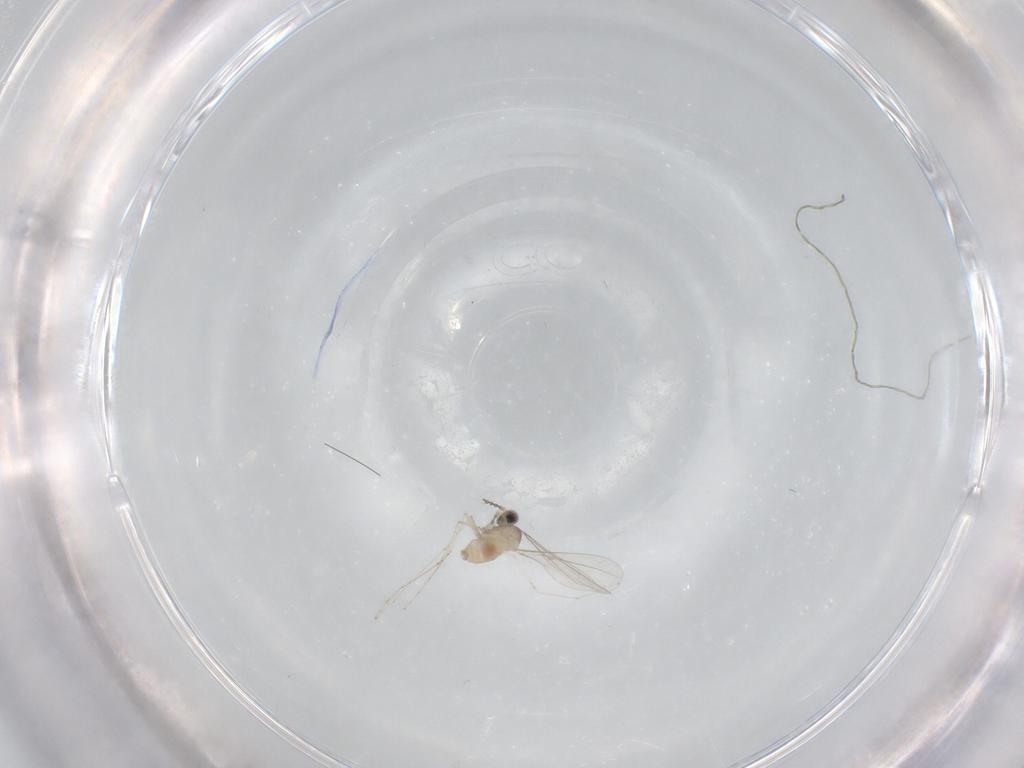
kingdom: Animalia
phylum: Arthropoda
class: Insecta
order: Diptera
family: Cecidomyiidae
